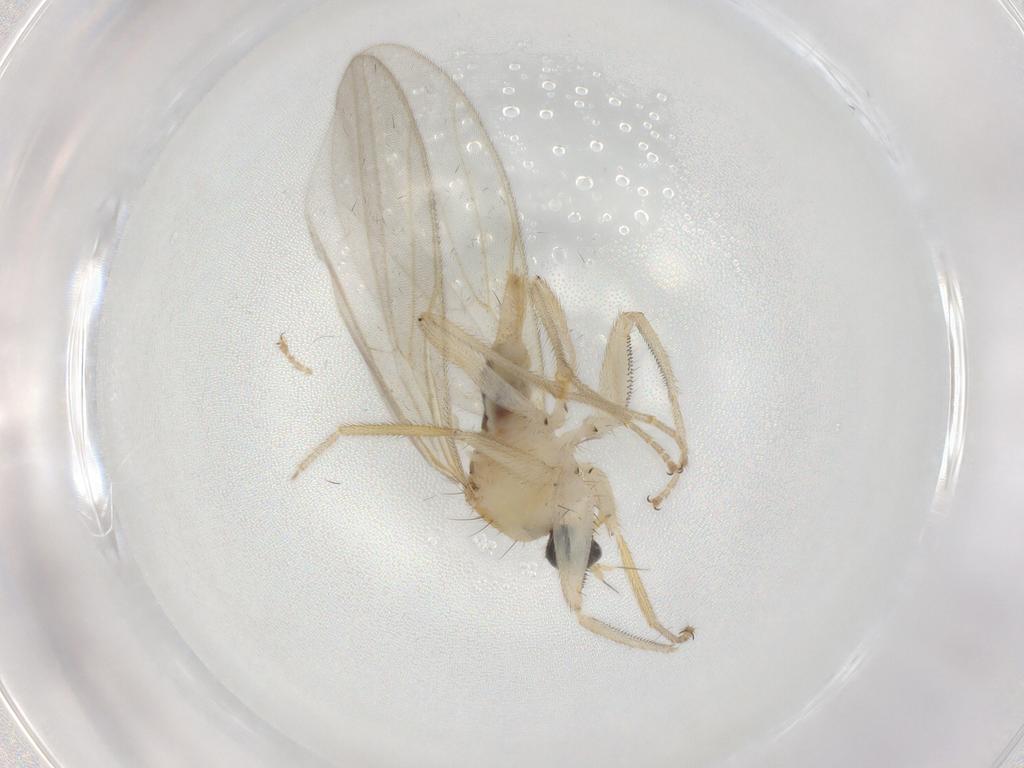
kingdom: Animalia
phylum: Arthropoda
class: Insecta
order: Diptera
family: Hybotidae
